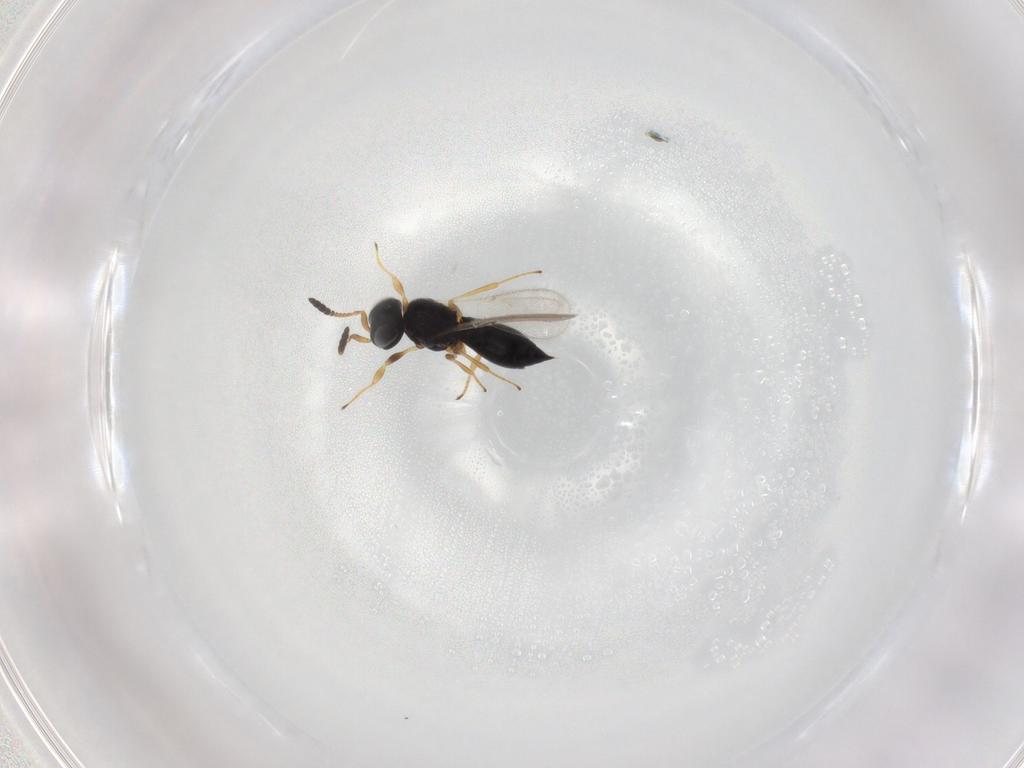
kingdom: Animalia
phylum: Arthropoda
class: Insecta
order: Hymenoptera
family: Scelionidae
